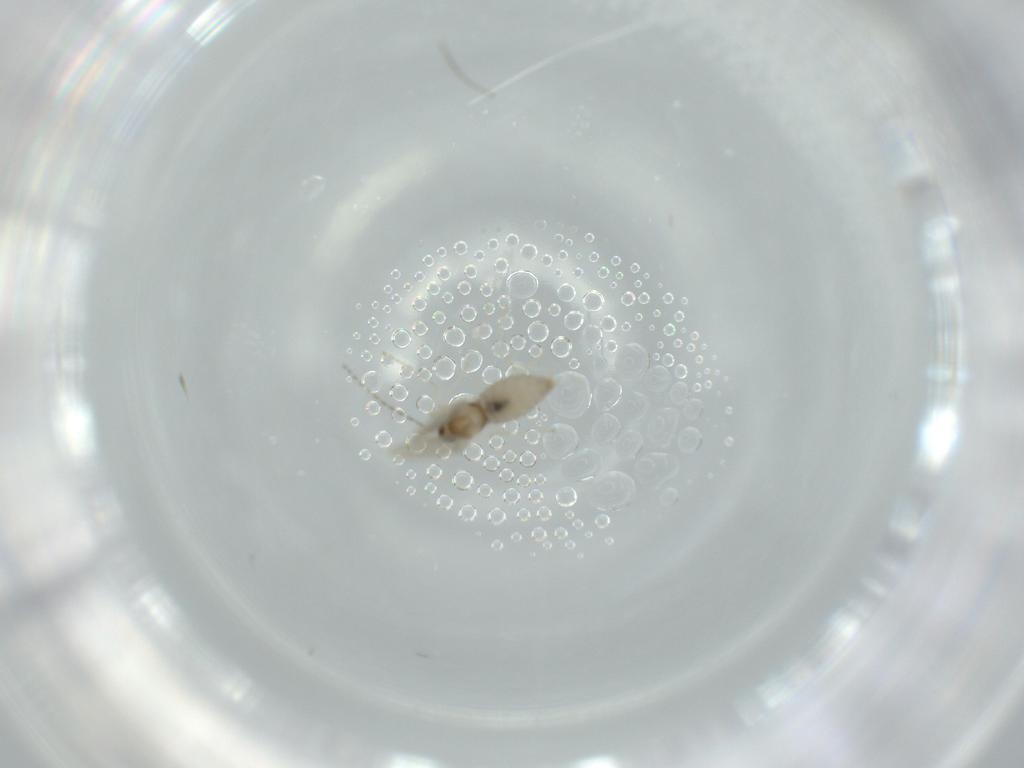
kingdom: Animalia
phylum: Arthropoda
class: Insecta
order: Diptera
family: Cecidomyiidae
